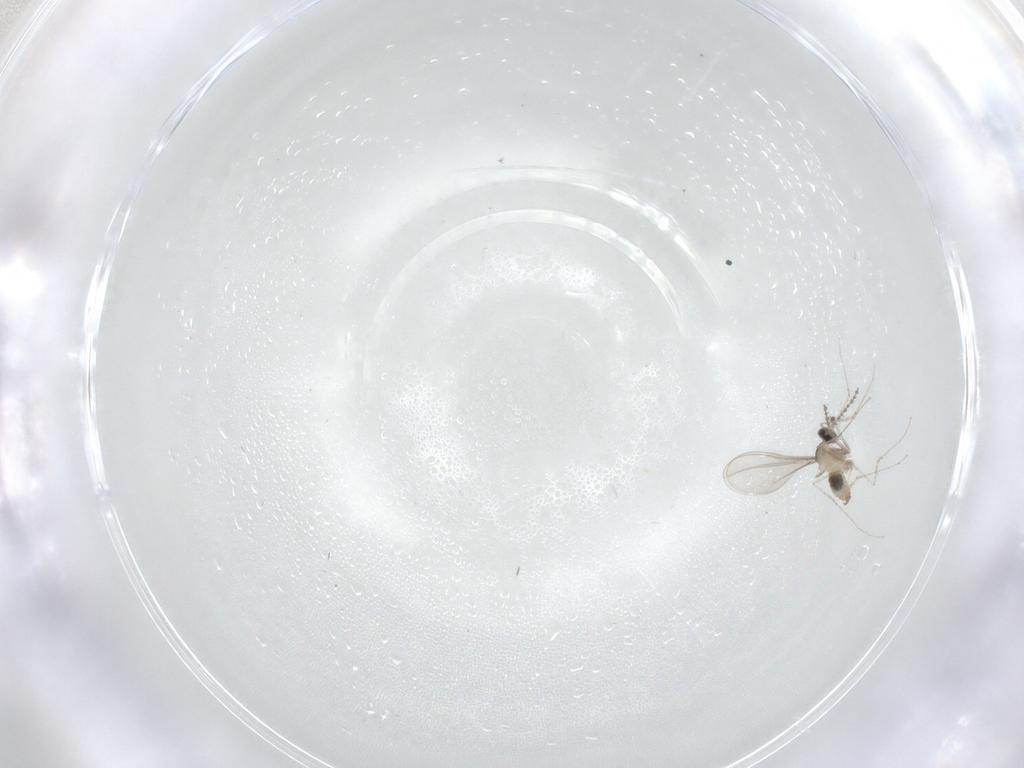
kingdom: Animalia
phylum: Arthropoda
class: Insecta
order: Diptera
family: Cecidomyiidae
